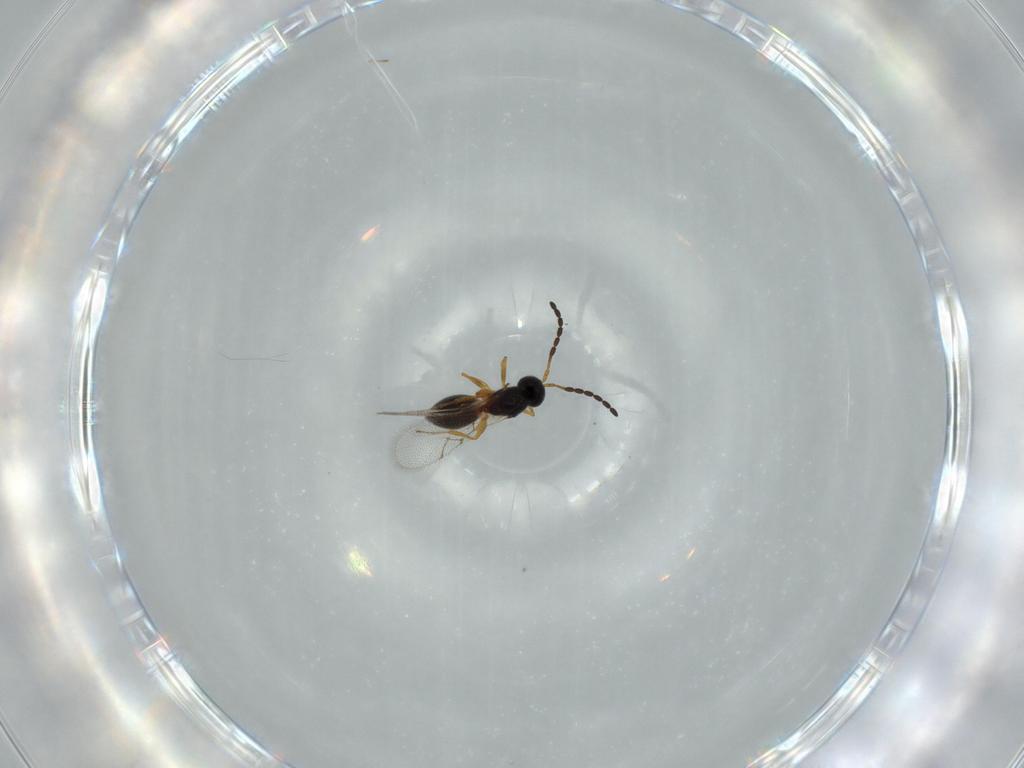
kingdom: Animalia
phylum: Arthropoda
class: Insecta
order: Hymenoptera
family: Figitidae
